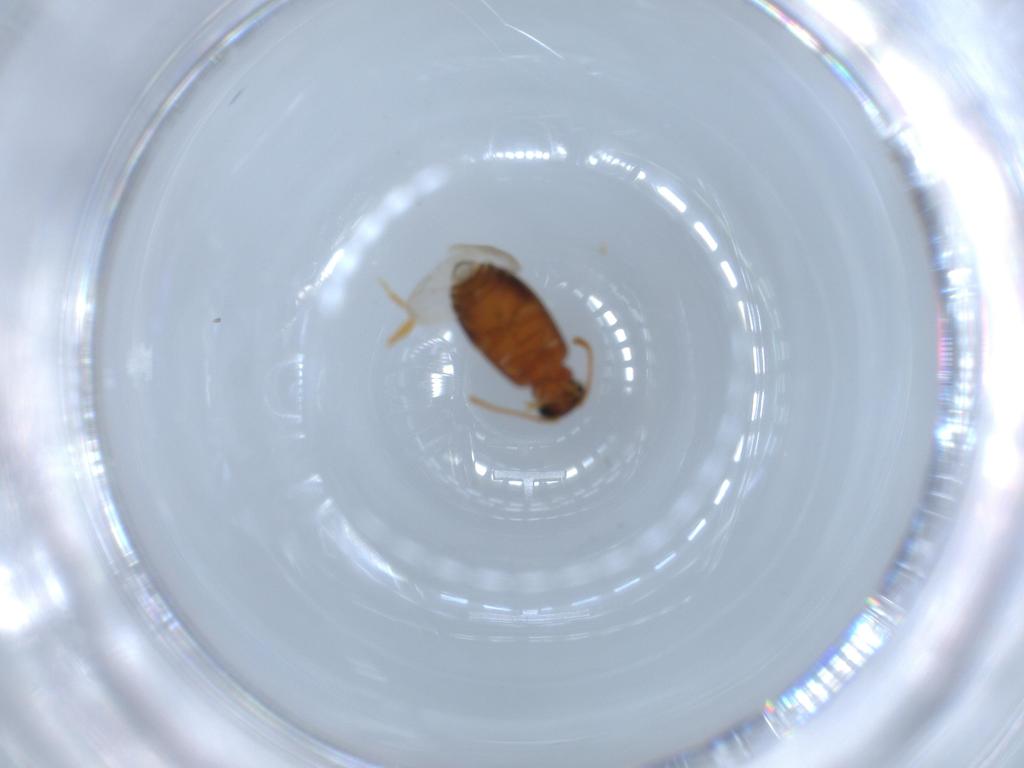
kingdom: Animalia
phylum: Arthropoda
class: Insecta
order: Coleoptera
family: Aderidae
